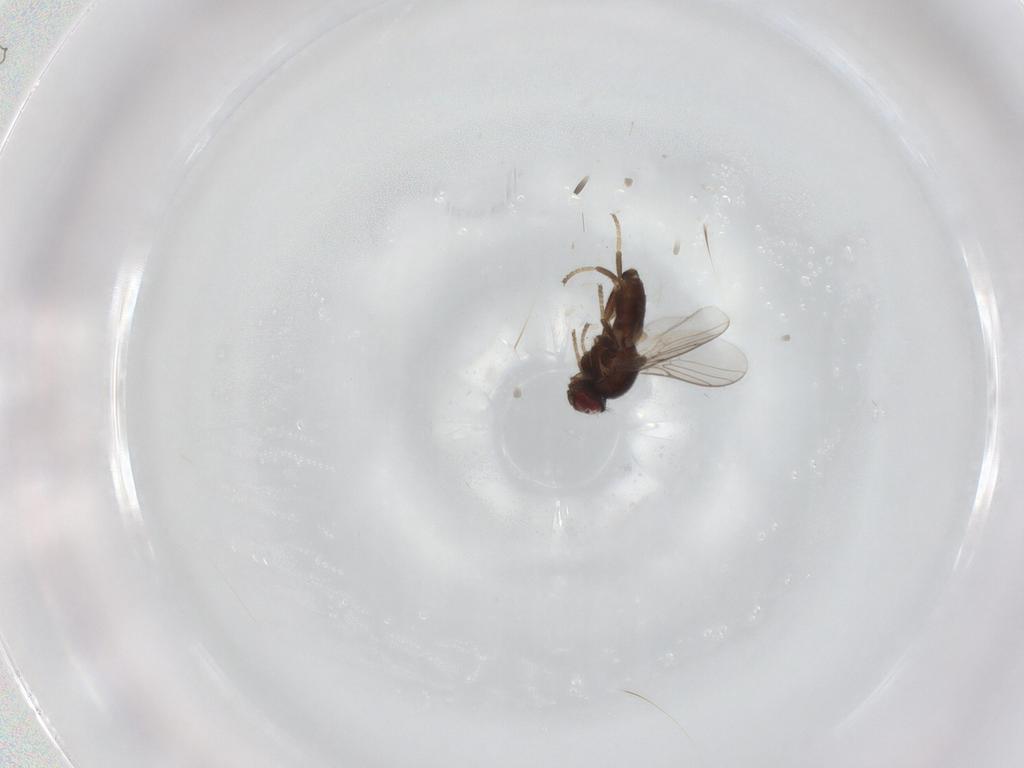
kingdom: Animalia
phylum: Arthropoda
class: Insecta
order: Diptera
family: Chloropidae
